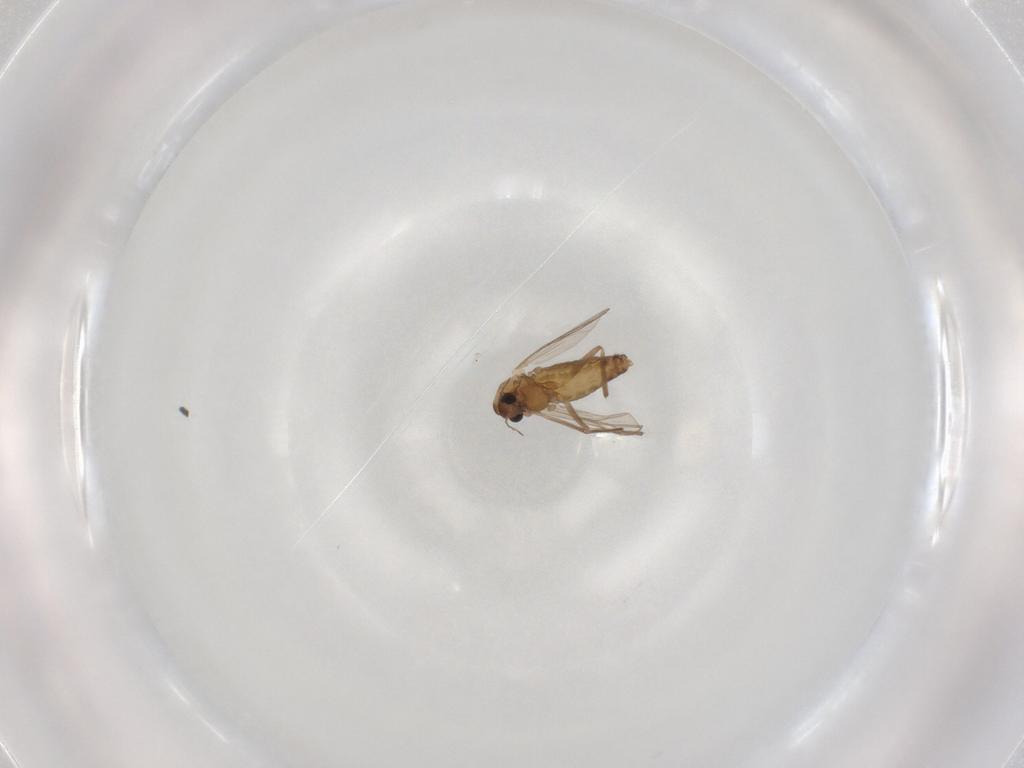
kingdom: Animalia
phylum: Arthropoda
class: Insecta
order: Diptera
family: Chironomidae
